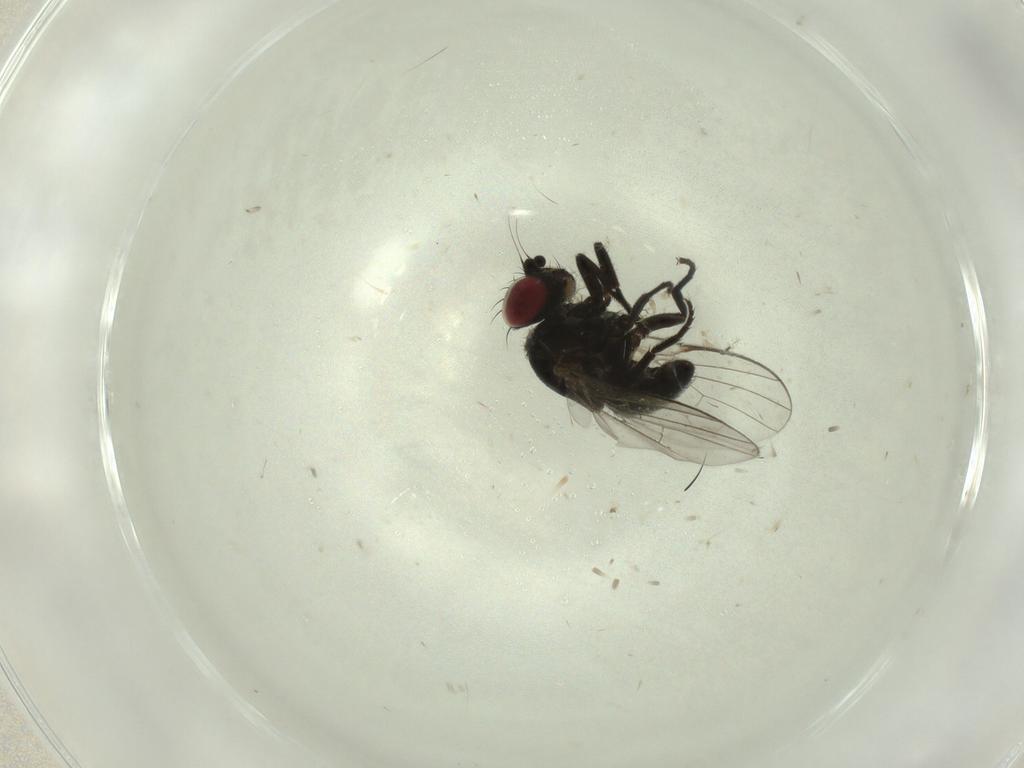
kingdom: Animalia
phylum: Arthropoda
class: Insecta
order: Diptera
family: Agromyzidae
